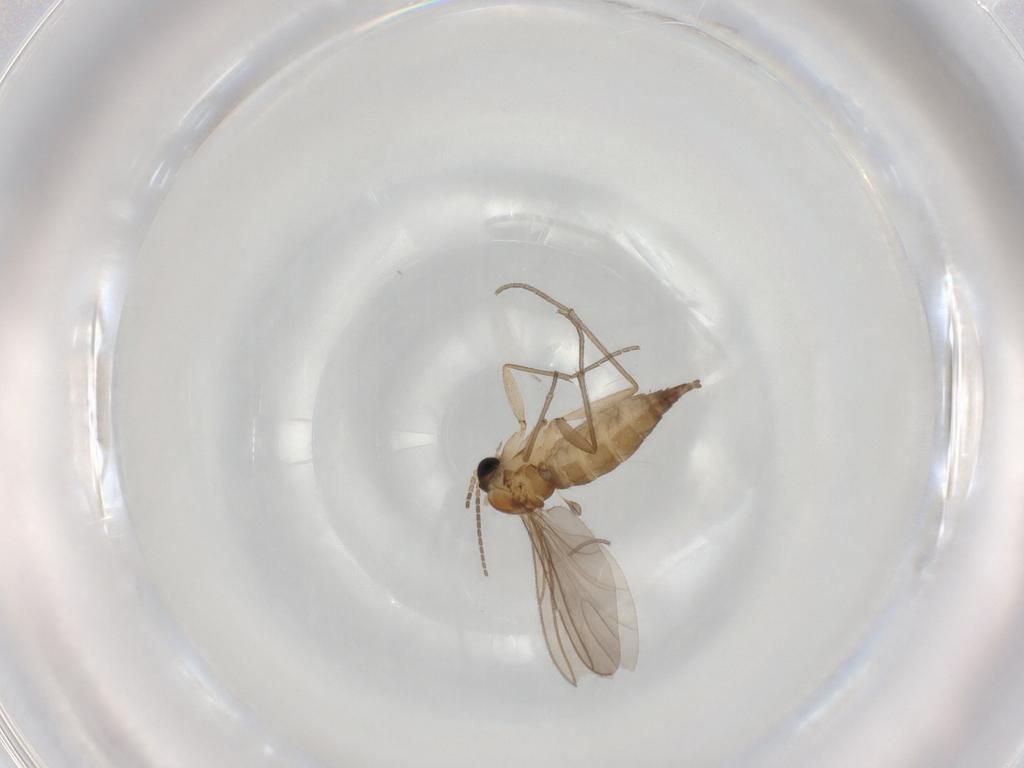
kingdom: Animalia
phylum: Arthropoda
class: Insecta
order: Diptera
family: Sciaridae
